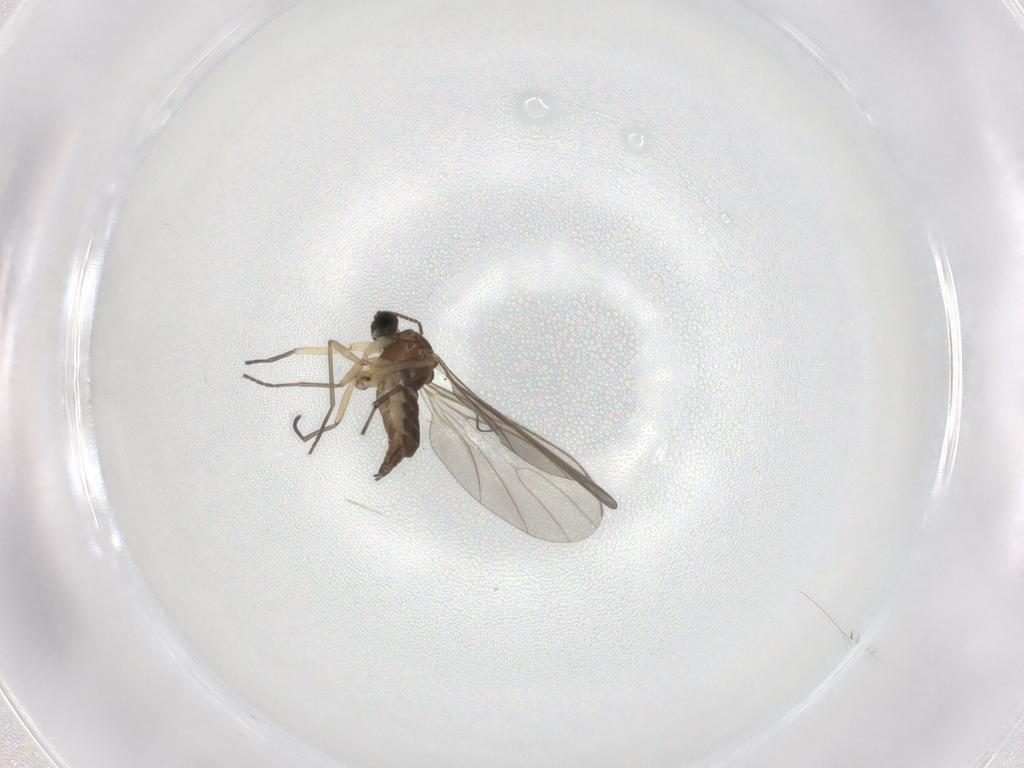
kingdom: Animalia
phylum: Arthropoda
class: Insecta
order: Diptera
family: Sciaridae
